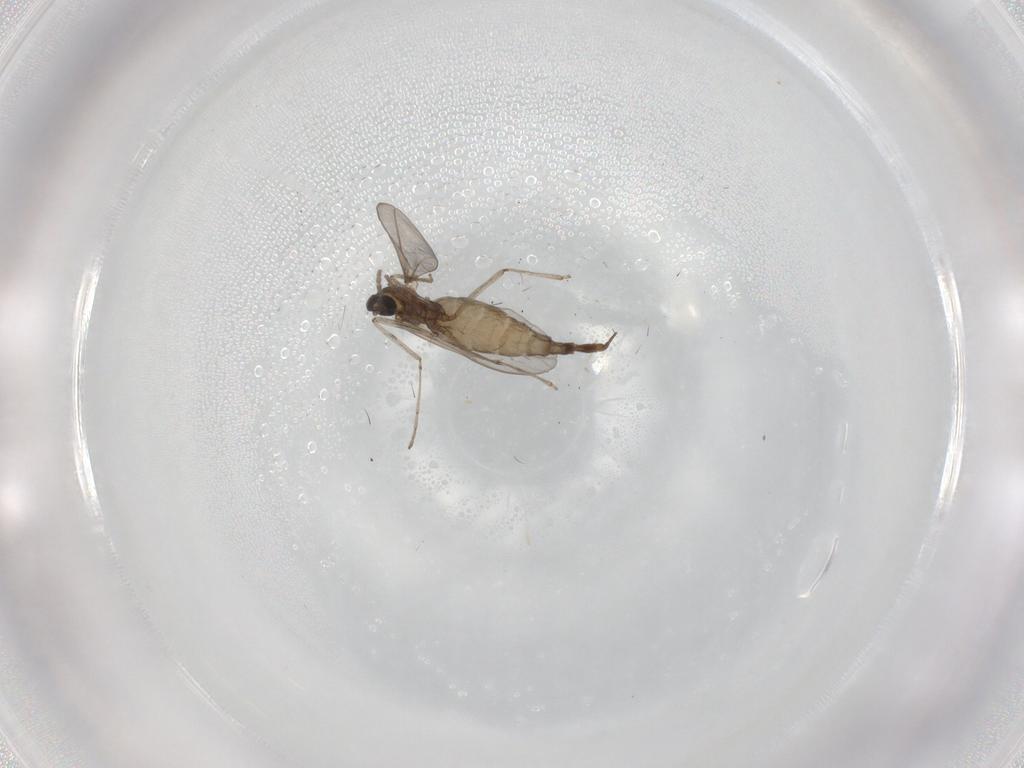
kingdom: Animalia
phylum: Arthropoda
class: Insecta
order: Diptera
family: Cecidomyiidae
